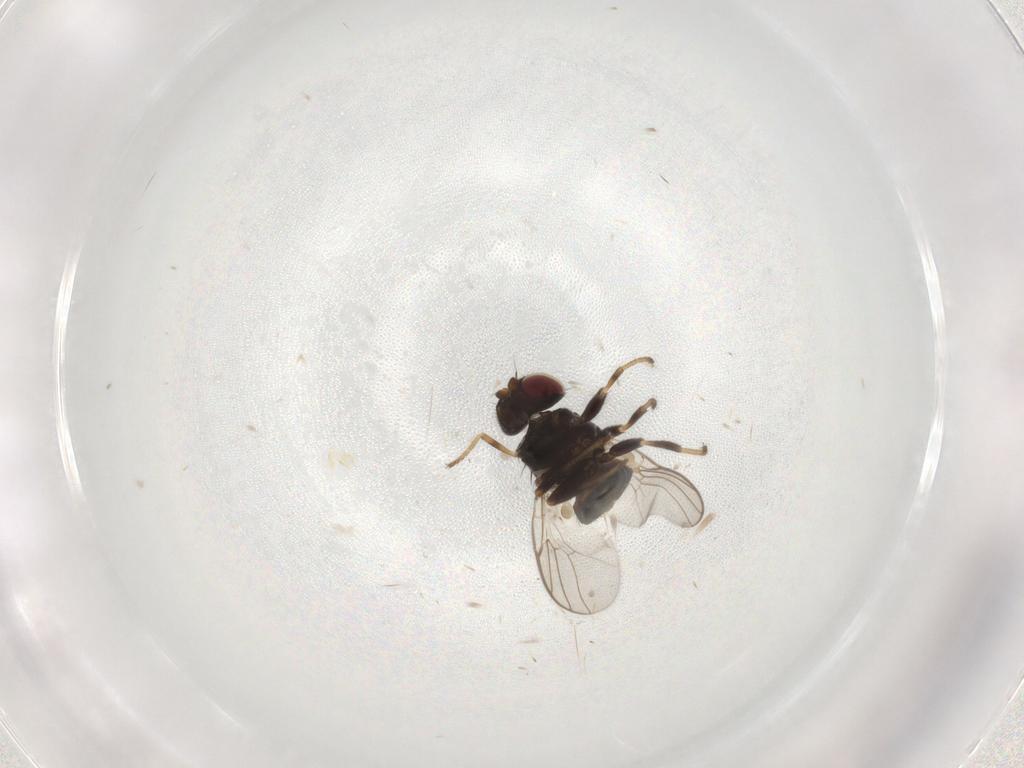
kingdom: Animalia
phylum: Arthropoda
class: Insecta
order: Diptera
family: Chloropidae
